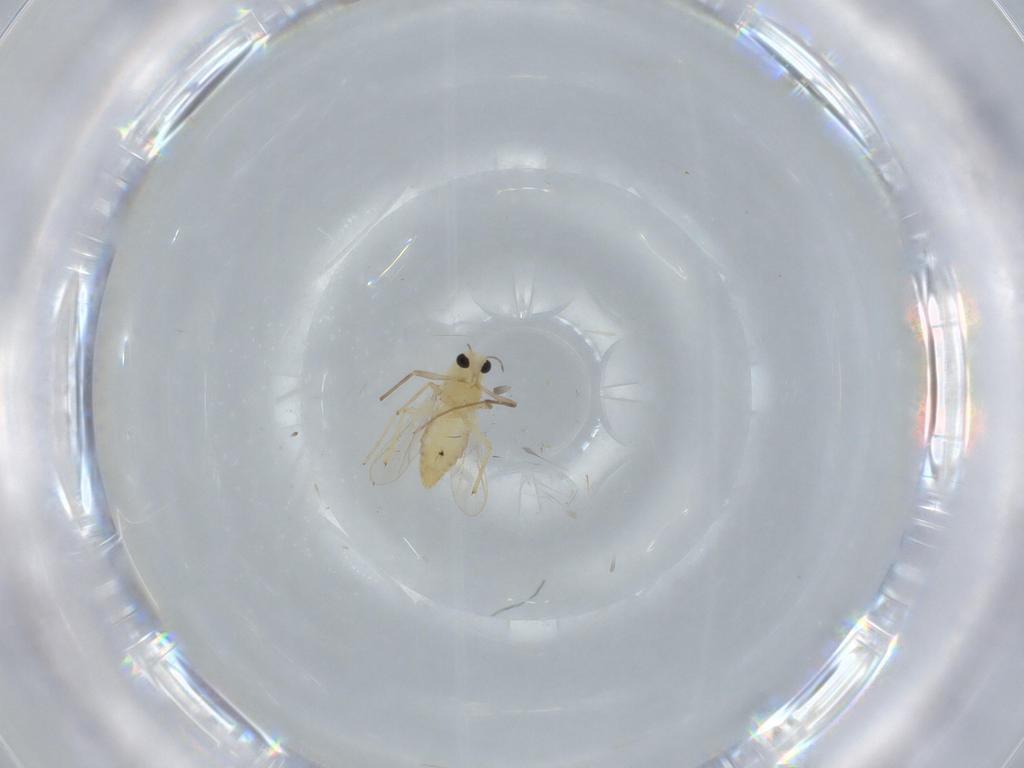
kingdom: Animalia
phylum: Arthropoda
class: Insecta
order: Diptera
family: Chironomidae
